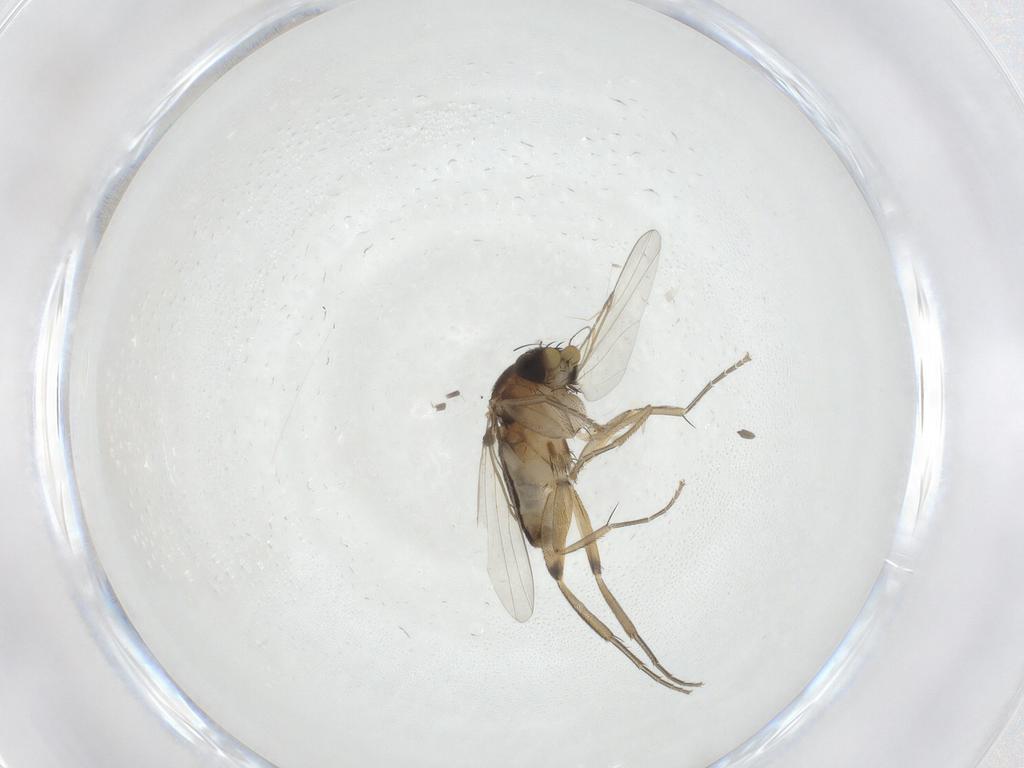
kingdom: Animalia
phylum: Arthropoda
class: Insecta
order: Diptera
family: Phoridae
